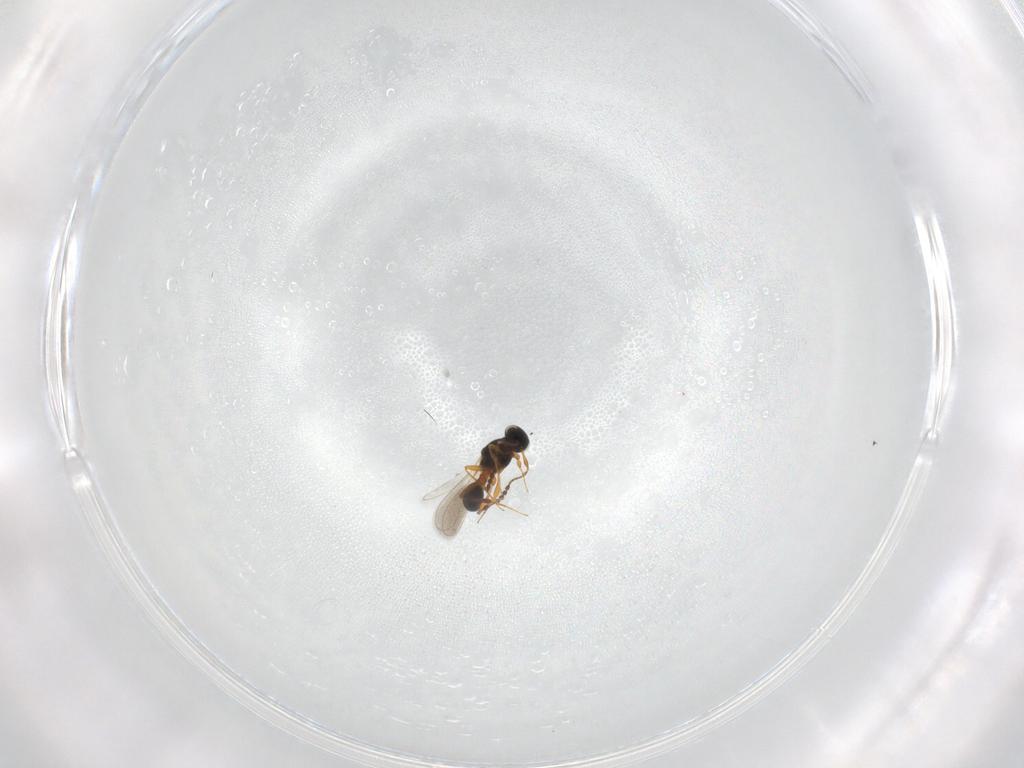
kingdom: Animalia
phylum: Arthropoda
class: Insecta
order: Hymenoptera
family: Platygastridae
